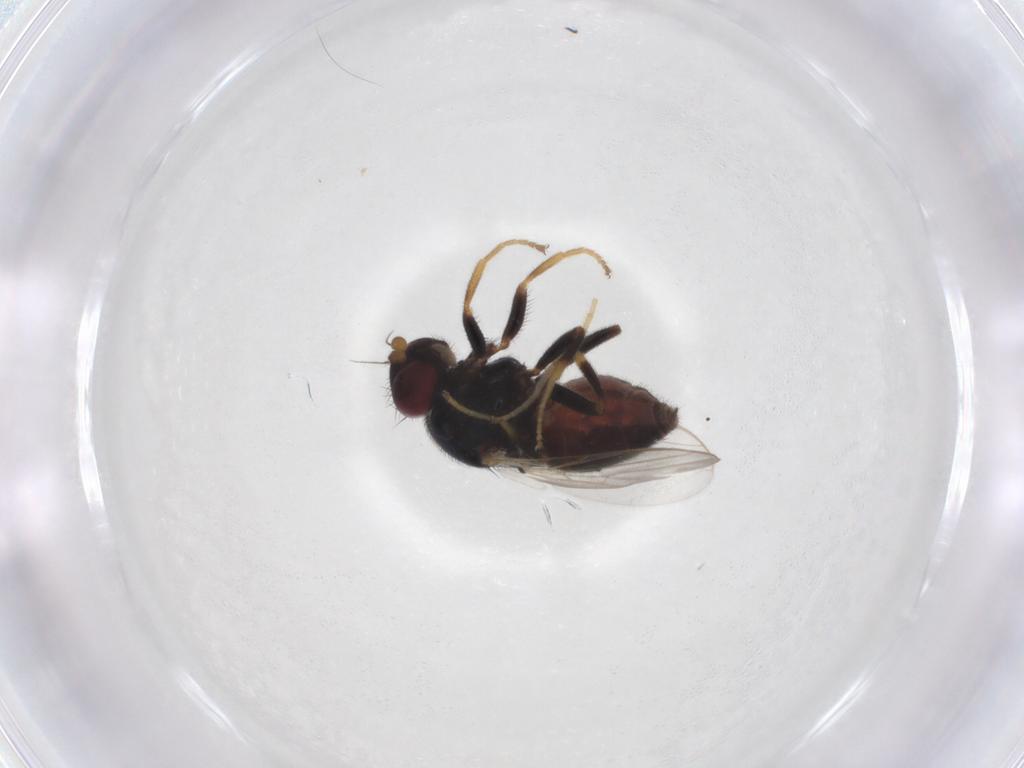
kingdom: Animalia
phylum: Arthropoda
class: Insecta
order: Diptera
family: Chloropidae
